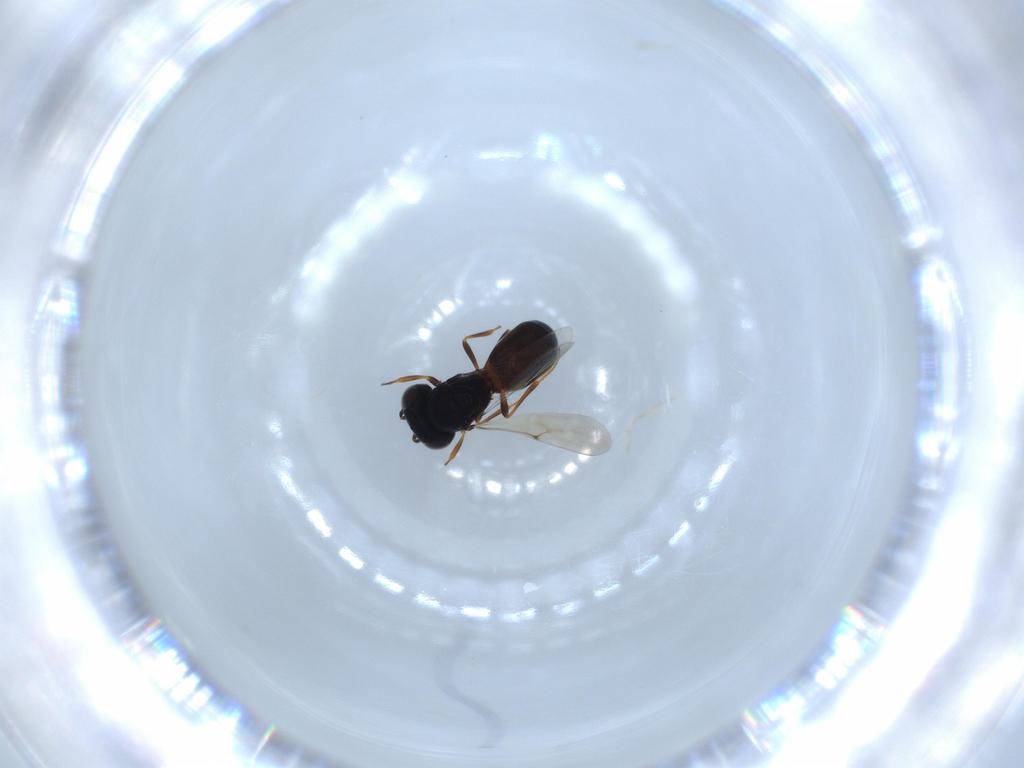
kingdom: Animalia
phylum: Arthropoda
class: Insecta
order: Hymenoptera
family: Scelionidae
